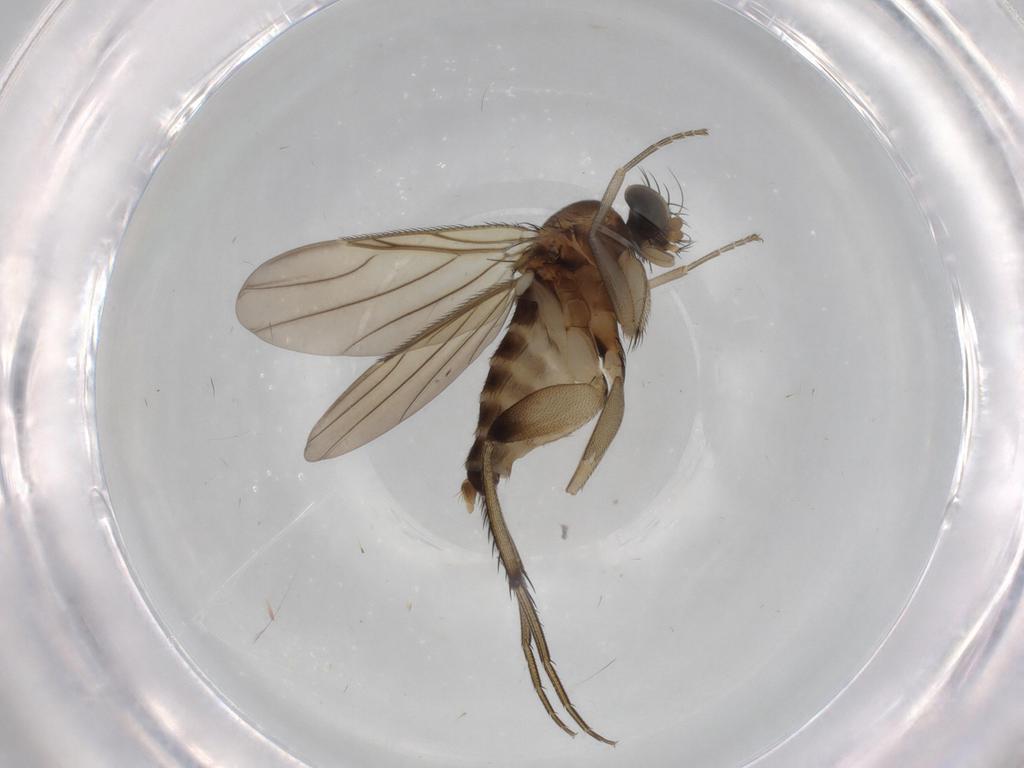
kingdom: Animalia
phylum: Arthropoda
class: Insecta
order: Diptera
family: Phoridae
